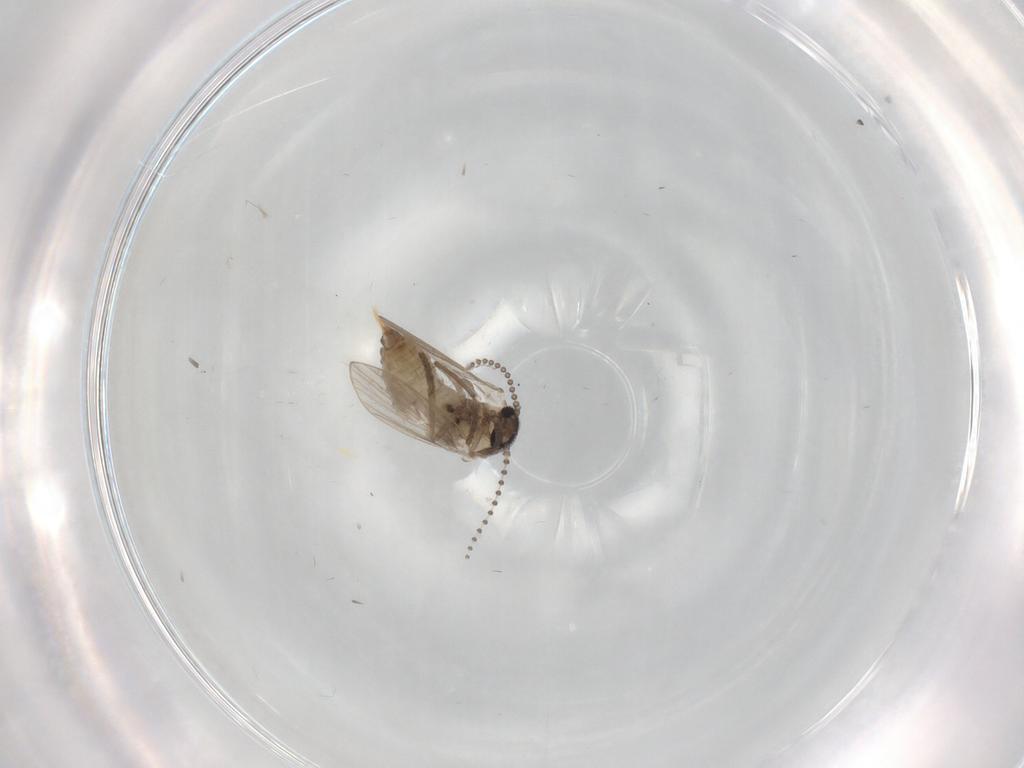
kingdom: Animalia
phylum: Arthropoda
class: Insecta
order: Diptera
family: Psychodidae
